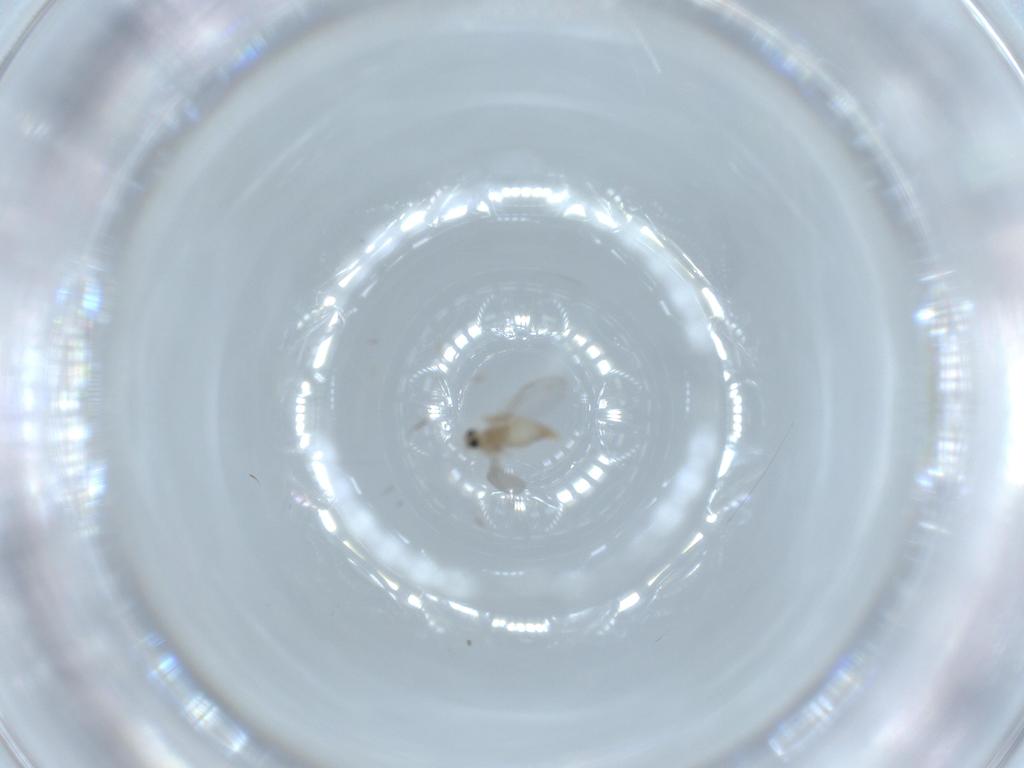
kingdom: Animalia
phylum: Arthropoda
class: Insecta
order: Diptera
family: Cecidomyiidae
